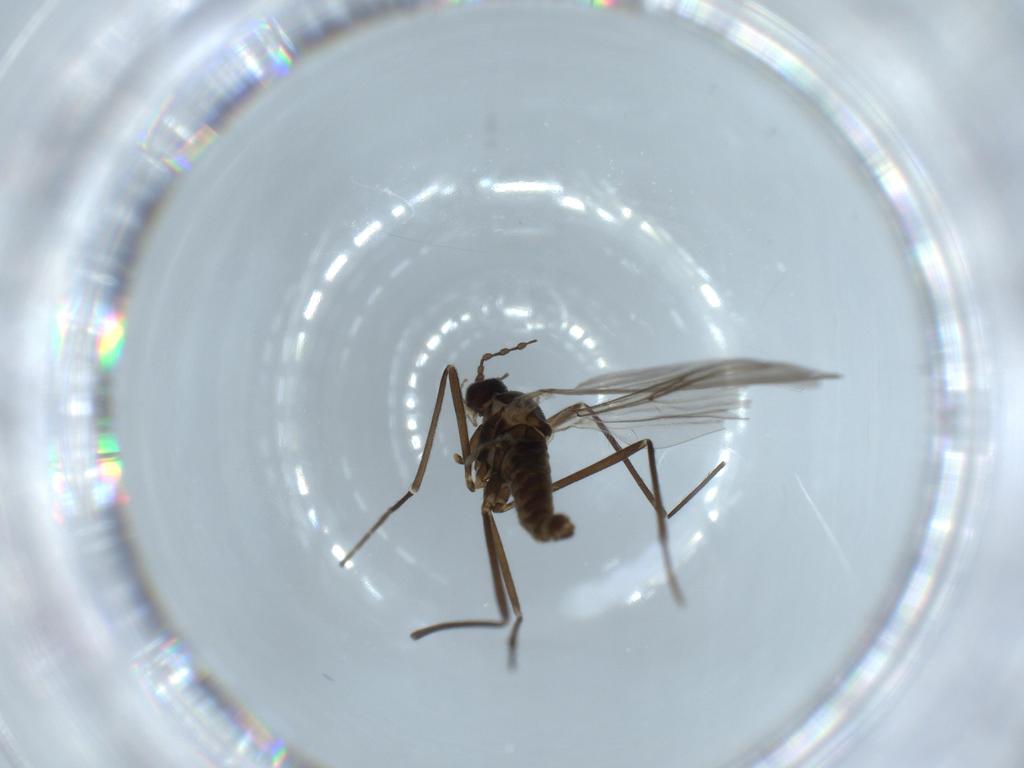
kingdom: Animalia
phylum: Arthropoda
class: Insecta
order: Diptera
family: Cecidomyiidae
